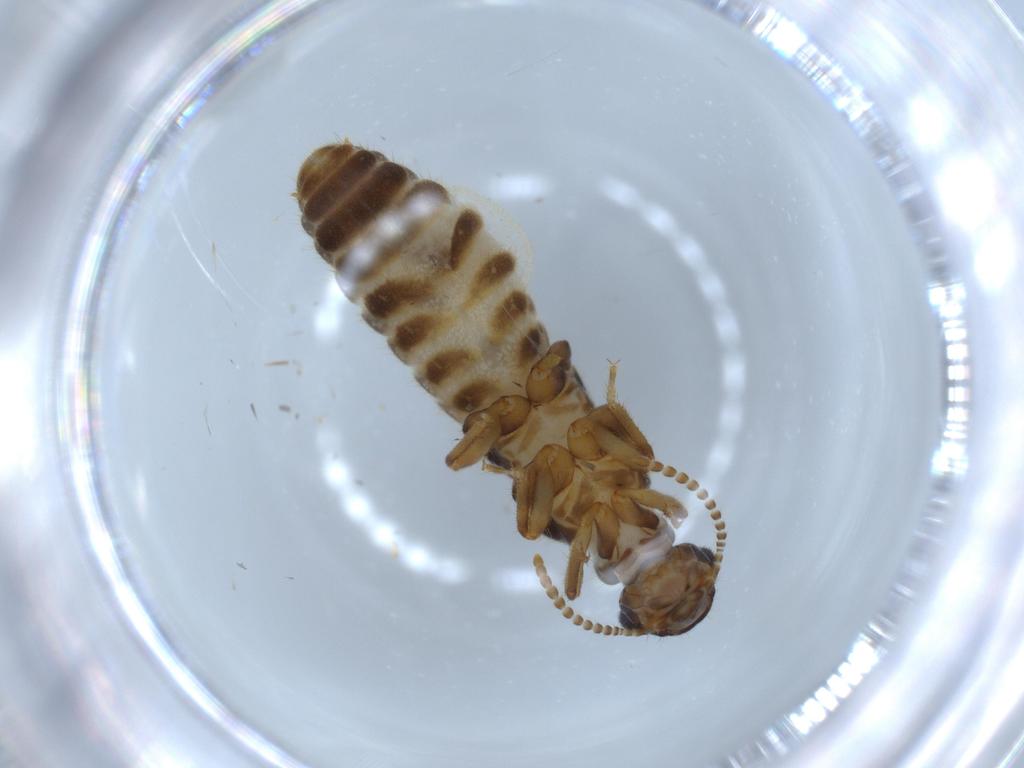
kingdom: Animalia
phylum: Arthropoda
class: Insecta
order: Blattodea
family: Termitidae
